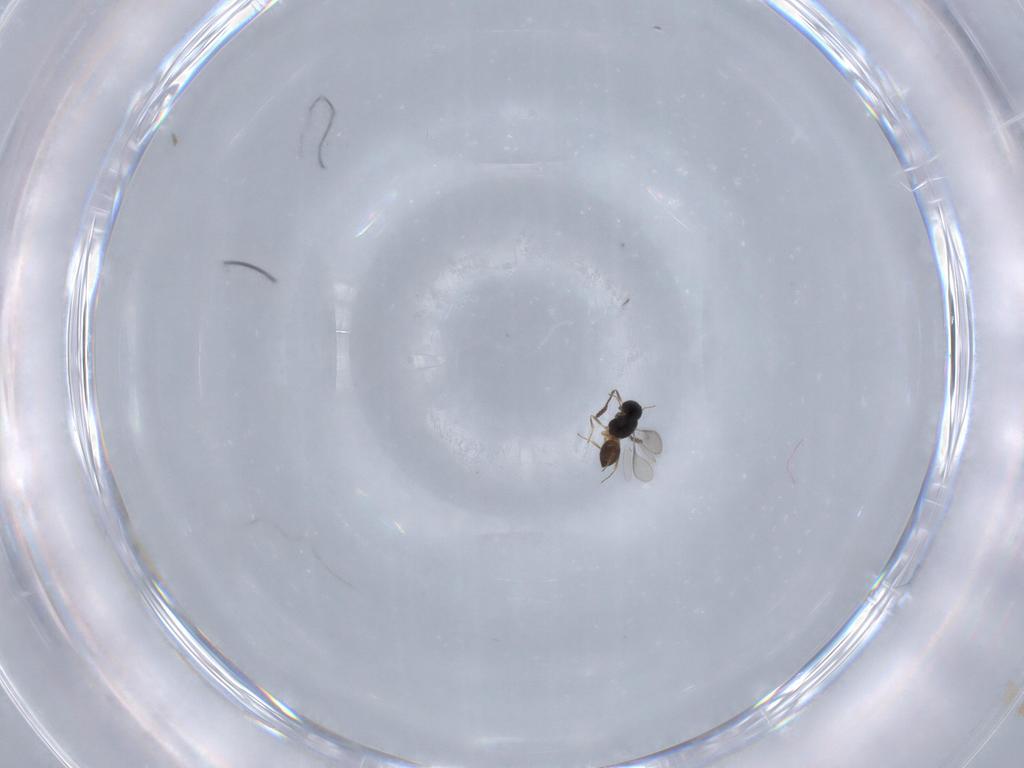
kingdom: Animalia
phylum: Arthropoda
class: Insecta
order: Hymenoptera
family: Scelionidae
